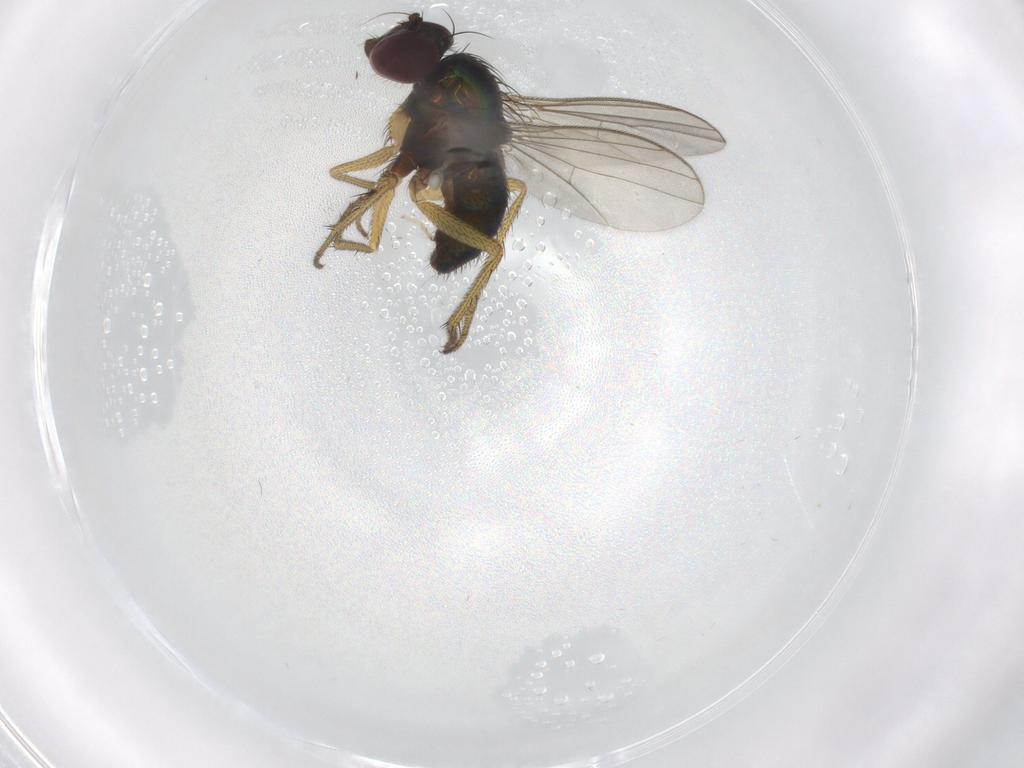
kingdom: Animalia
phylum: Arthropoda
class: Insecta
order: Diptera
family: Dolichopodidae
